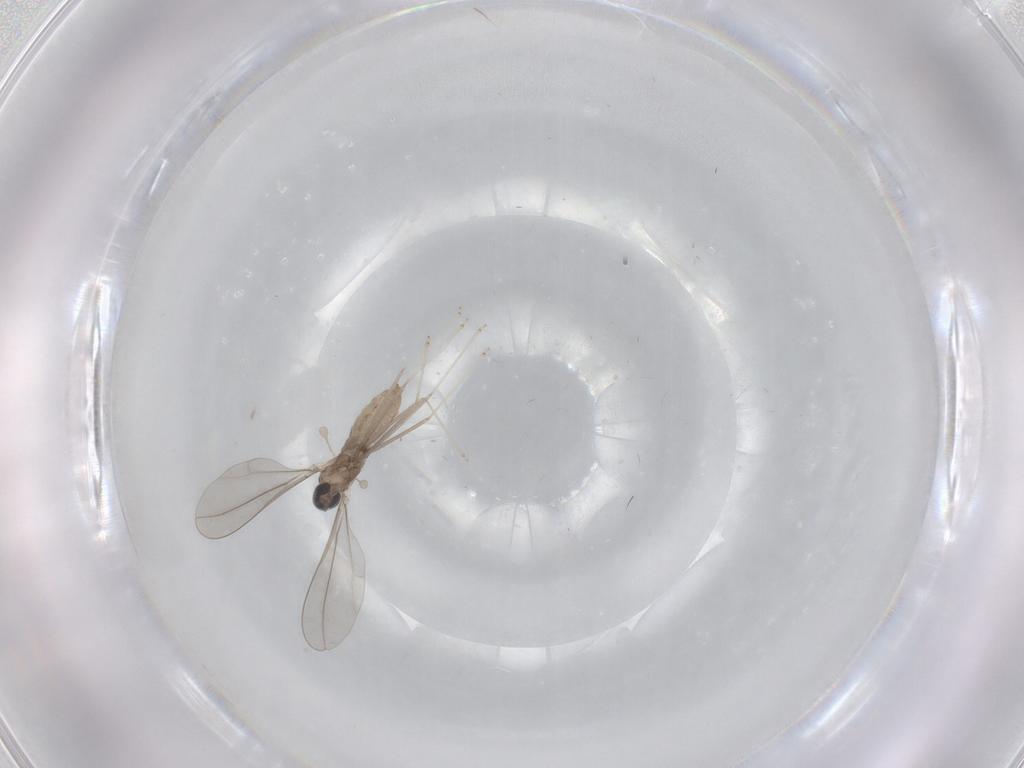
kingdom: Animalia
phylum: Arthropoda
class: Insecta
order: Diptera
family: Cecidomyiidae
